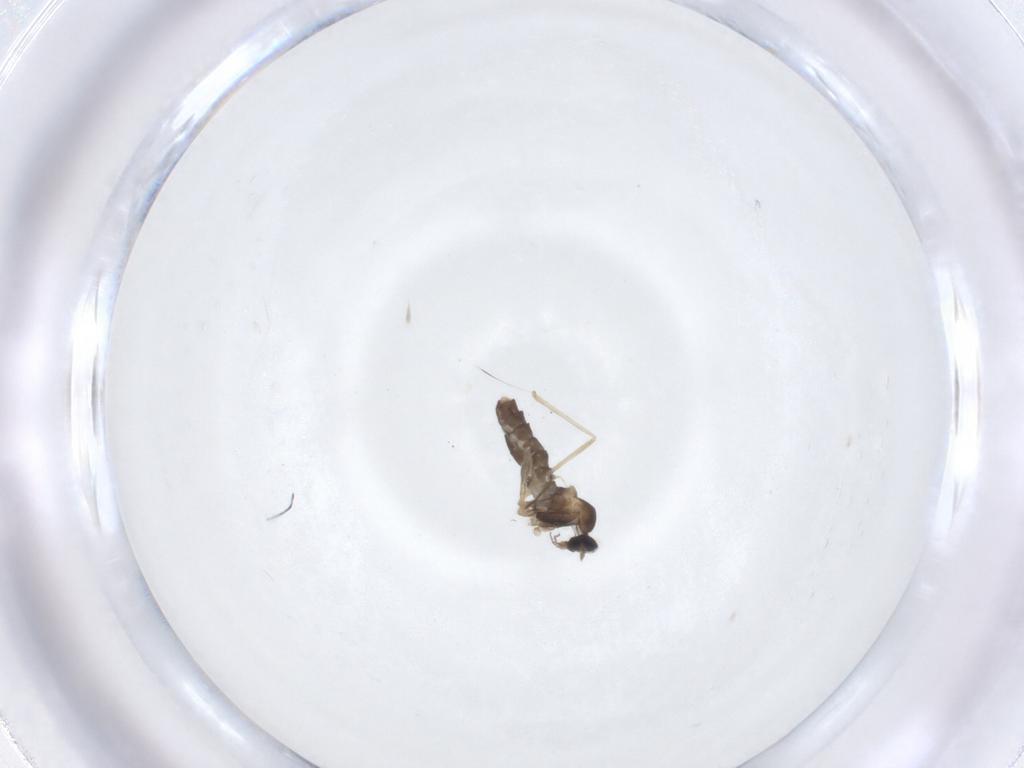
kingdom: Animalia
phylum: Arthropoda
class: Insecta
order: Diptera
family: Cecidomyiidae
